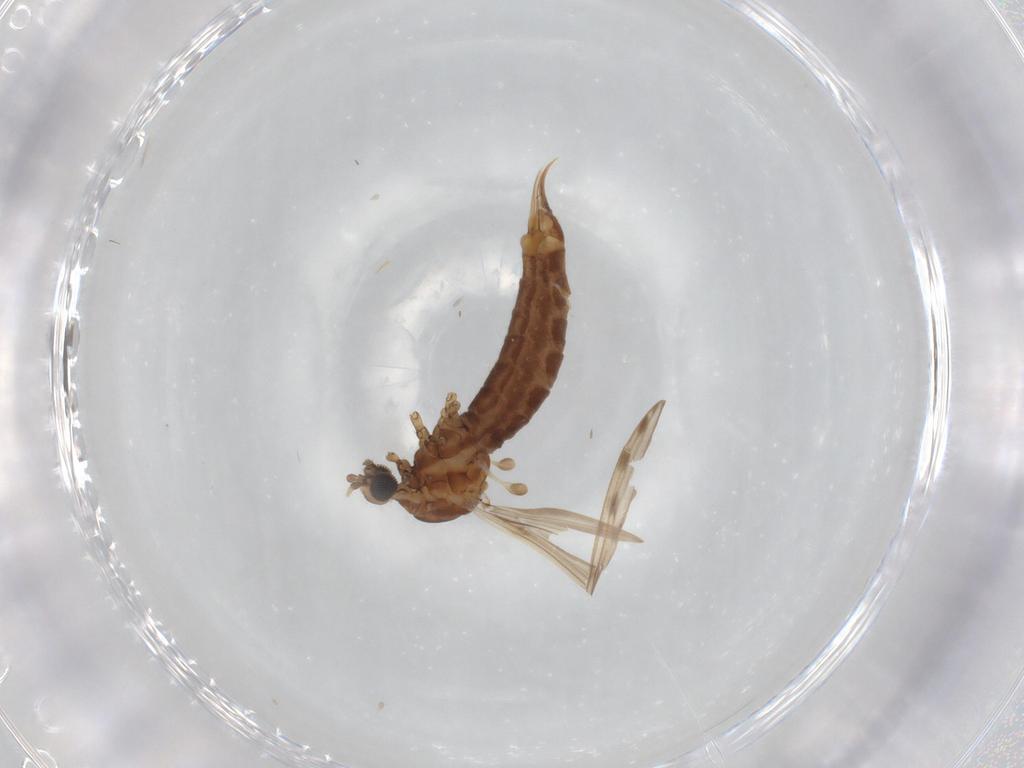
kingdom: Animalia
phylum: Arthropoda
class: Insecta
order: Diptera
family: Limoniidae
